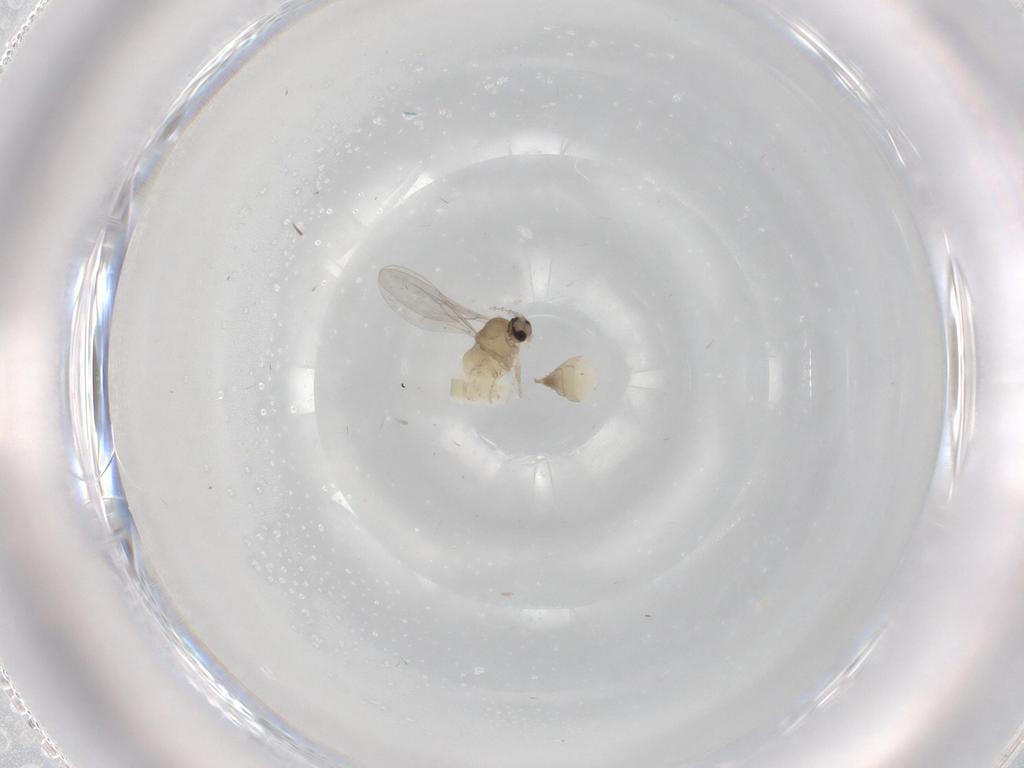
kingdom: Animalia
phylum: Arthropoda
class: Insecta
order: Diptera
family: Cecidomyiidae
